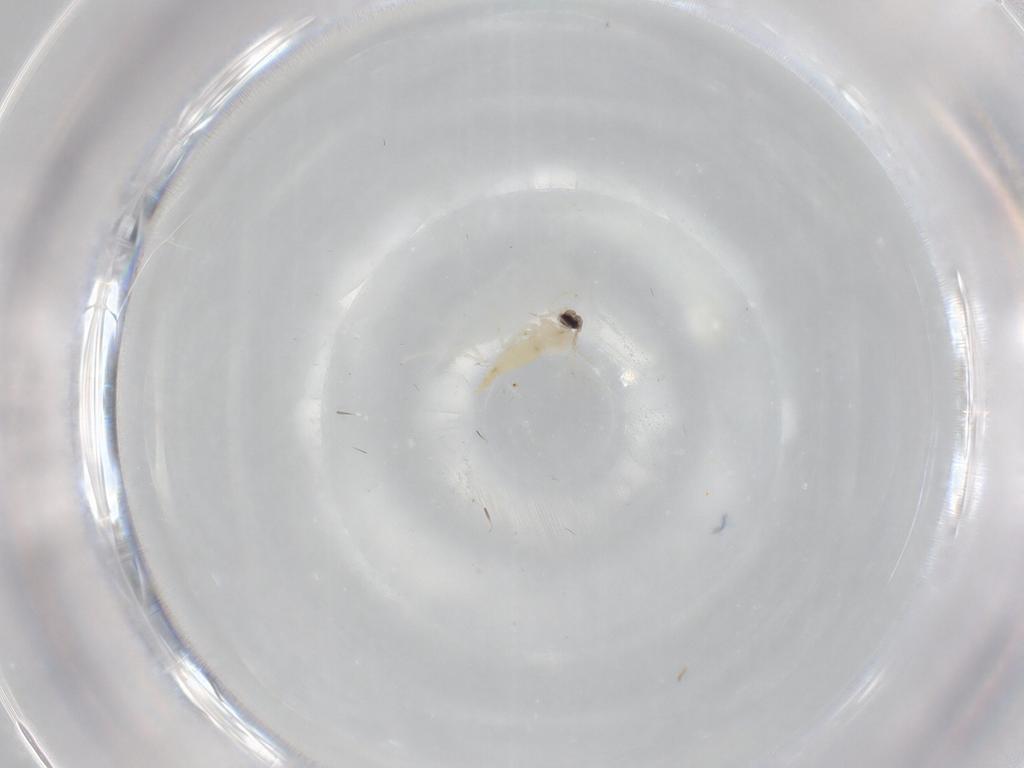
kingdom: Animalia
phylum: Arthropoda
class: Insecta
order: Diptera
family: Cecidomyiidae
